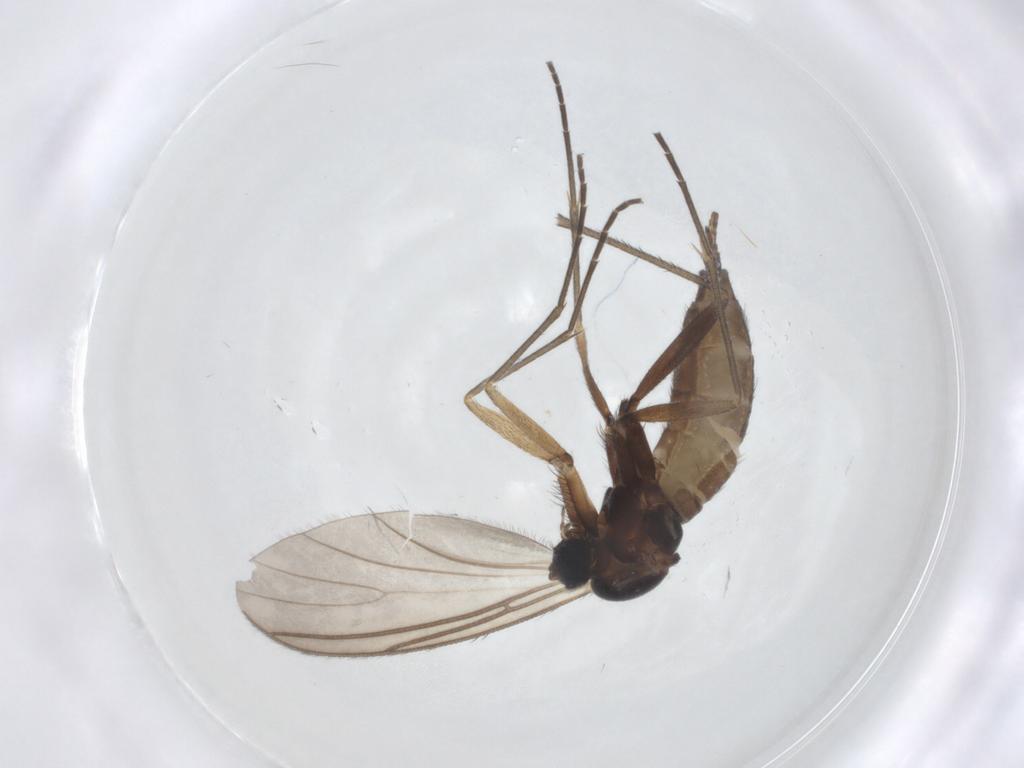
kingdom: Animalia
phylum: Arthropoda
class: Insecta
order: Diptera
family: Sciaridae
